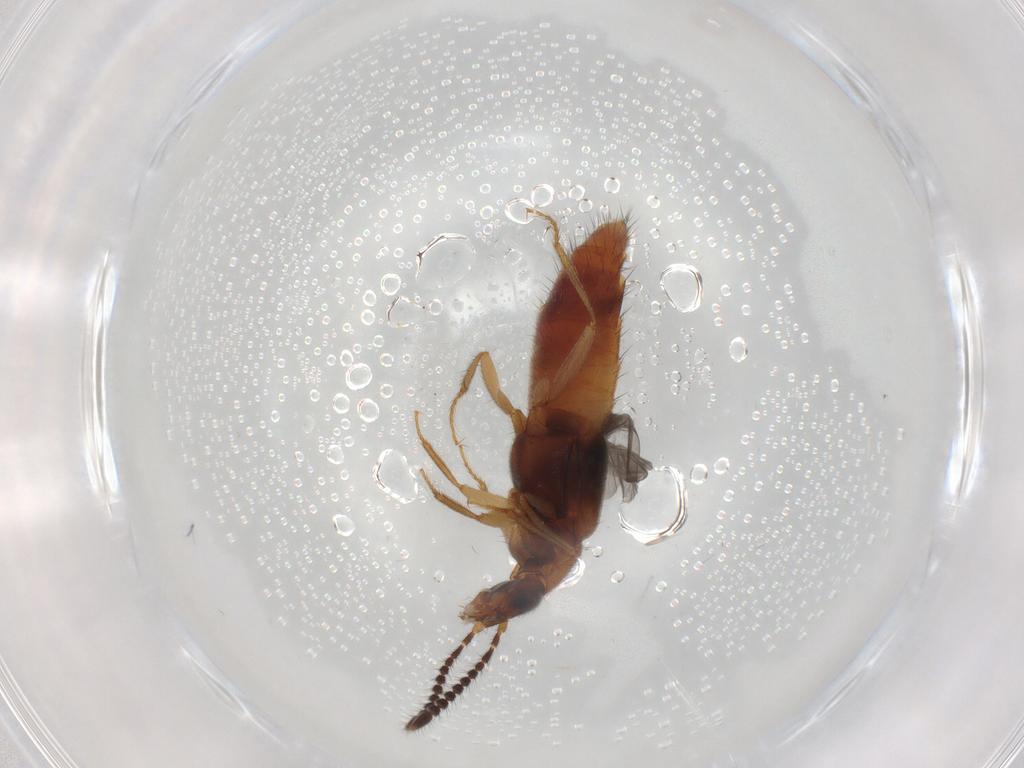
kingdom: Animalia
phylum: Arthropoda
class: Insecta
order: Coleoptera
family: Staphylinidae
